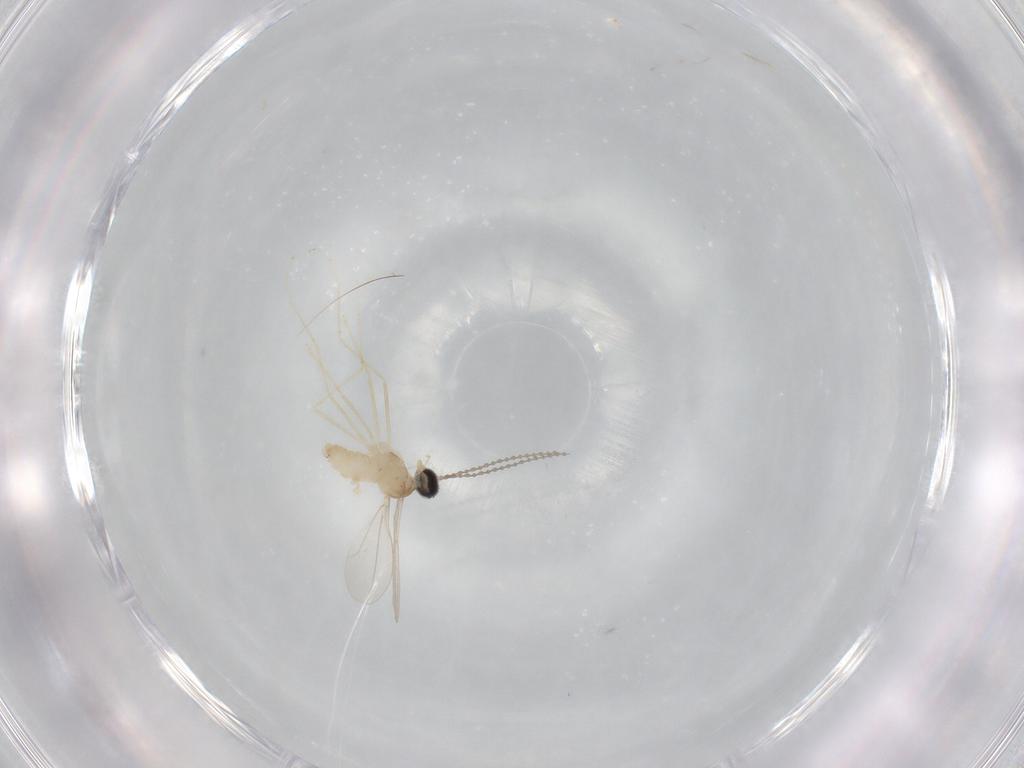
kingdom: Animalia
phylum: Arthropoda
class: Insecta
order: Diptera
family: Cecidomyiidae
